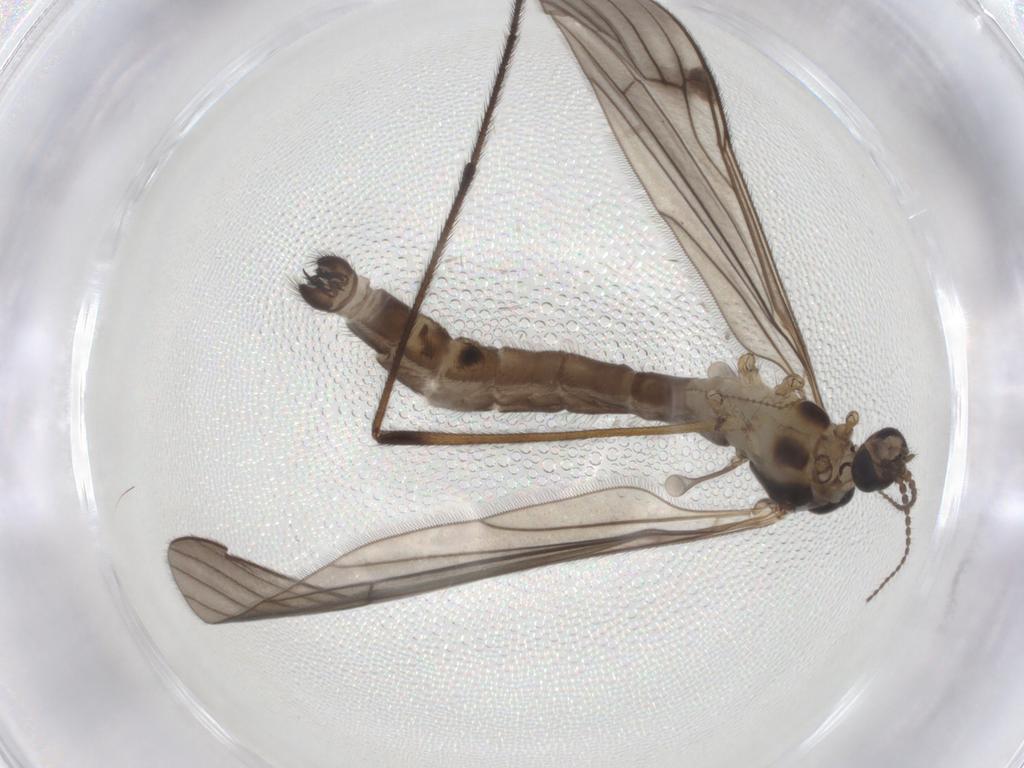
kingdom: Animalia
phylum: Arthropoda
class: Insecta
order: Diptera
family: Limoniidae
